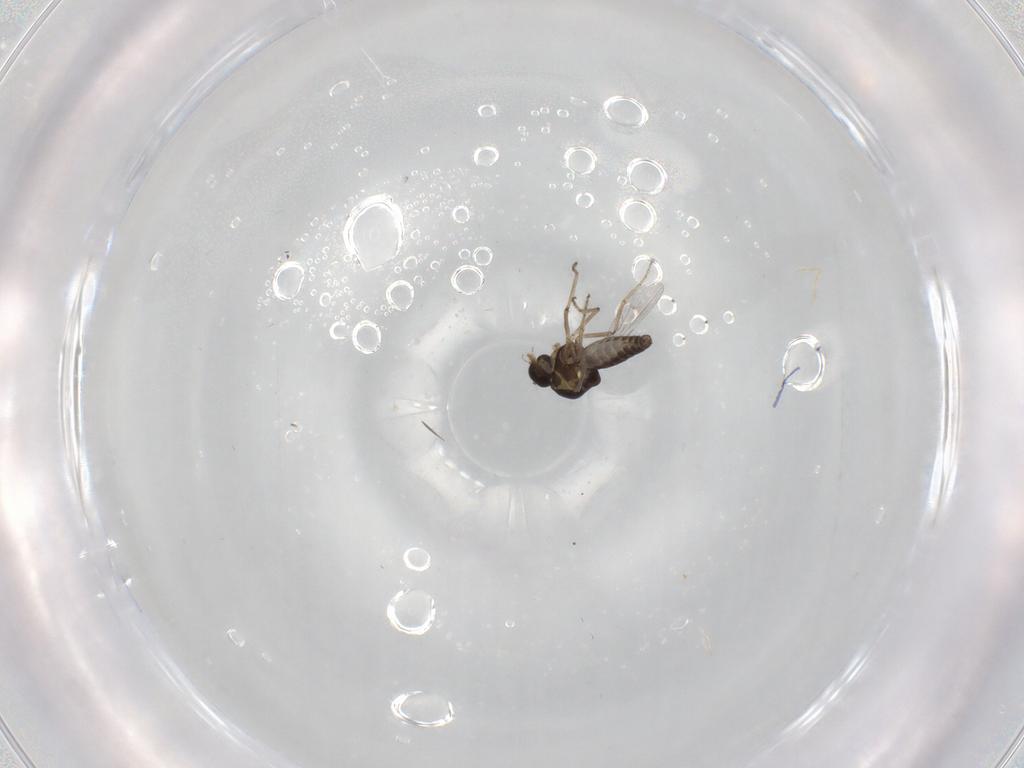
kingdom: Animalia
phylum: Arthropoda
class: Insecta
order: Diptera
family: Ceratopogonidae
